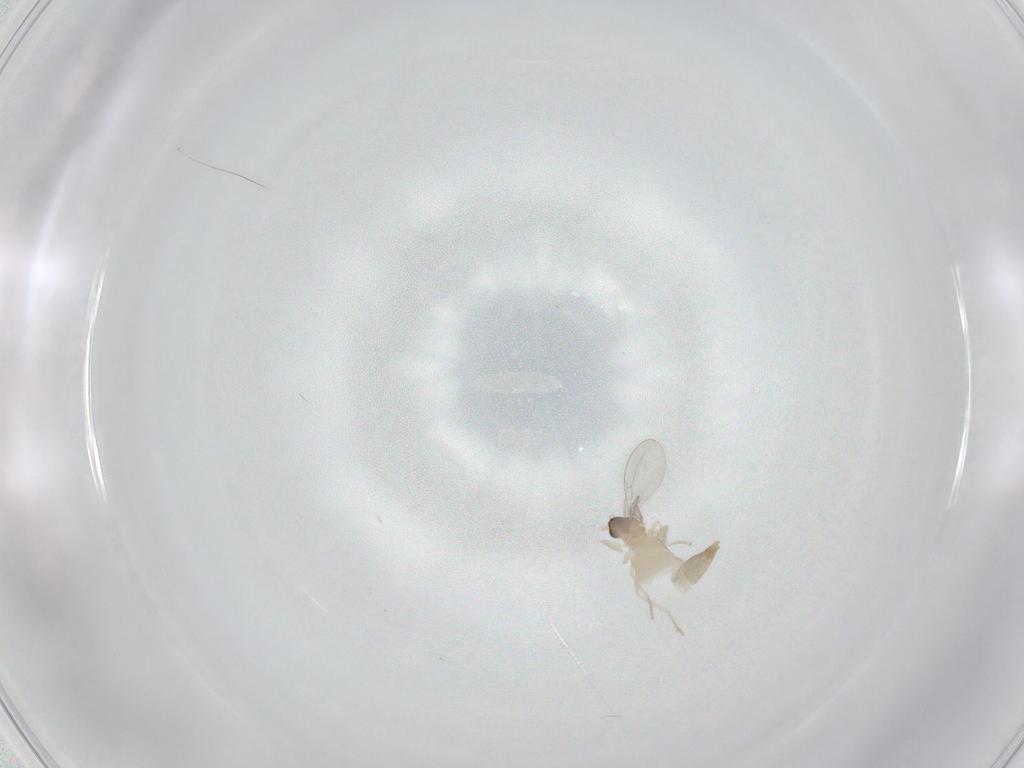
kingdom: Animalia
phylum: Arthropoda
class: Insecta
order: Diptera
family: Cecidomyiidae
